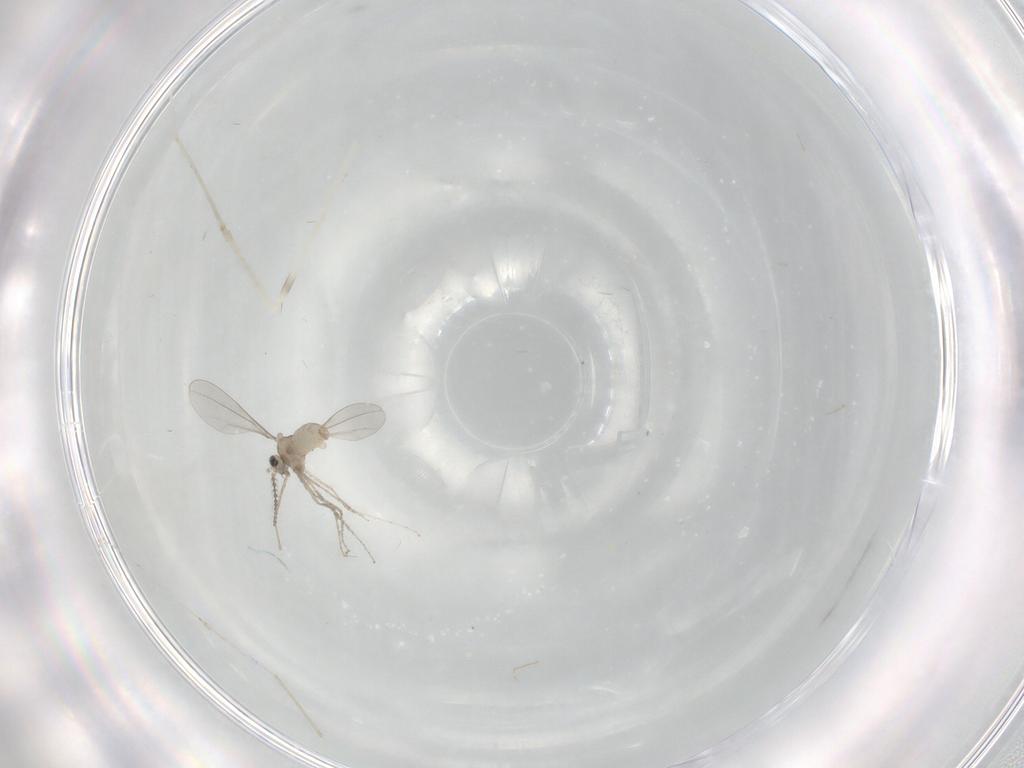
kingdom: Animalia
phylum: Arthropoda
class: Insecta
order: Diptera
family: Cecidomyiidae
